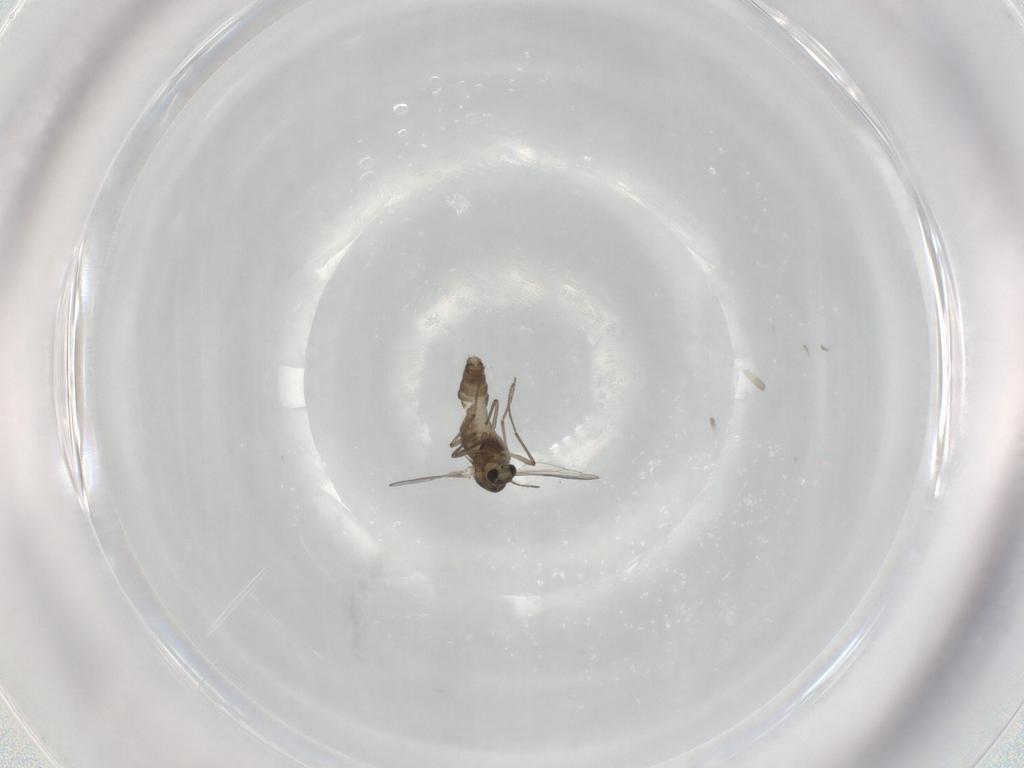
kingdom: Animalia
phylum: Arthropoda
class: Insecta
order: Diptera
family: Chironomidae
